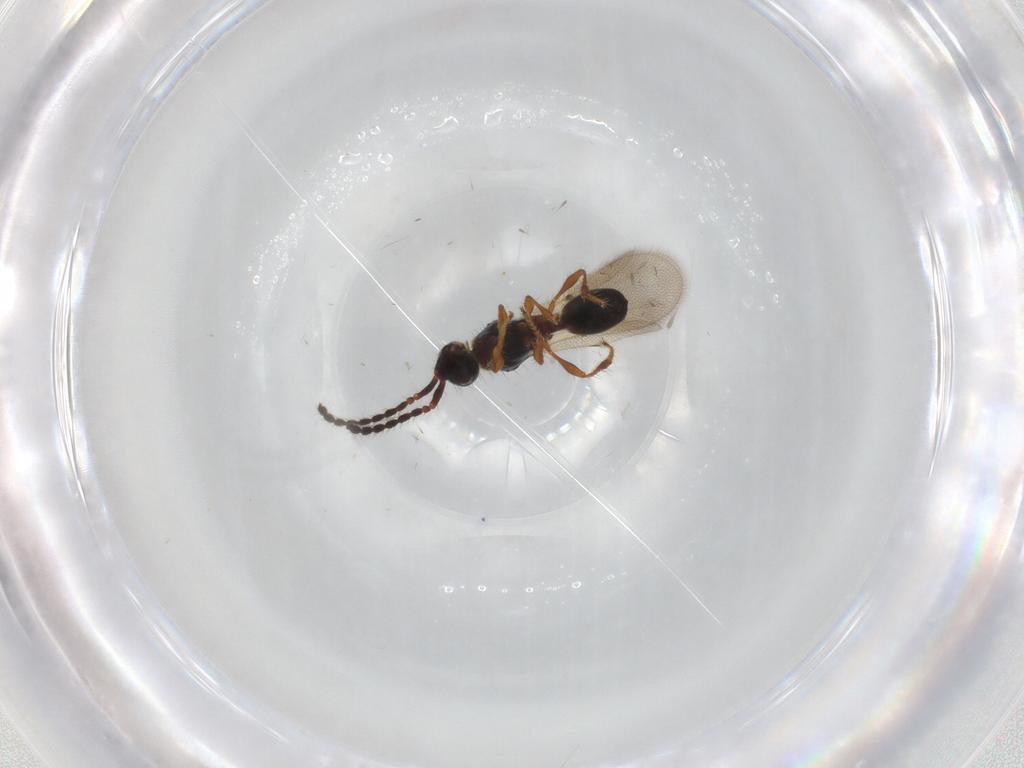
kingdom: Animalia
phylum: Arthropoda
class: Insecta
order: Hymenoptera
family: Diapriidae
